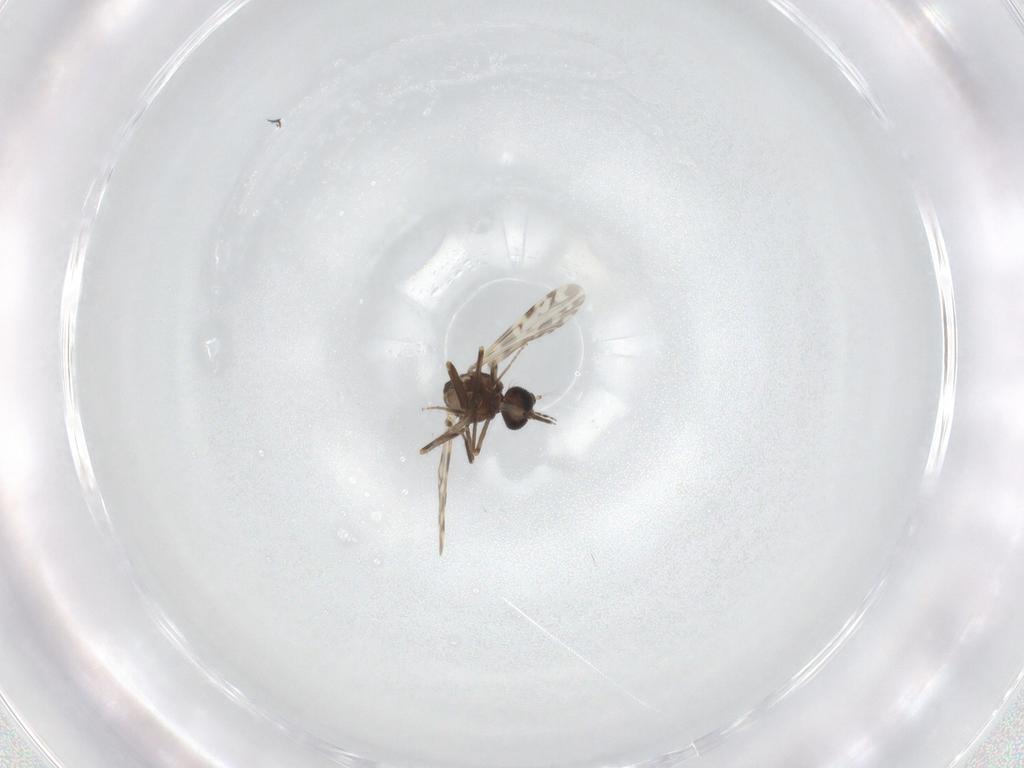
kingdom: Animalia
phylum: Arthropoda
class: Insecta
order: Diptera
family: Ceratopogonidae
